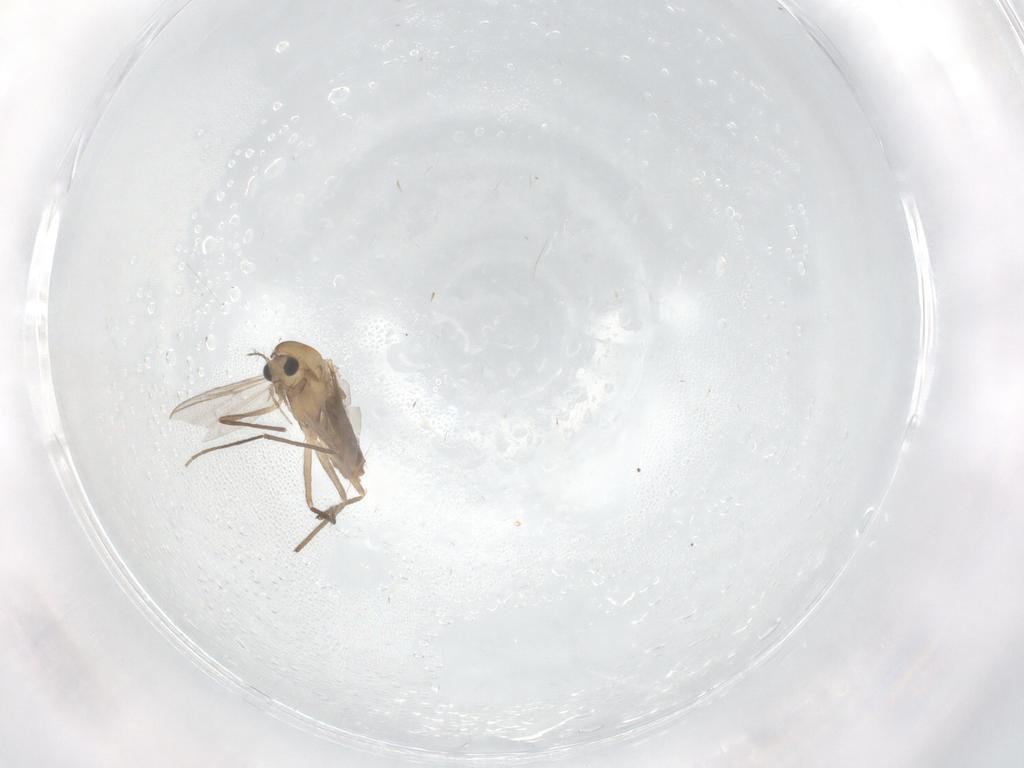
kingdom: Animalia
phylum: Arthropoda
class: Insecta
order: Diptera
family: Chironomidae
